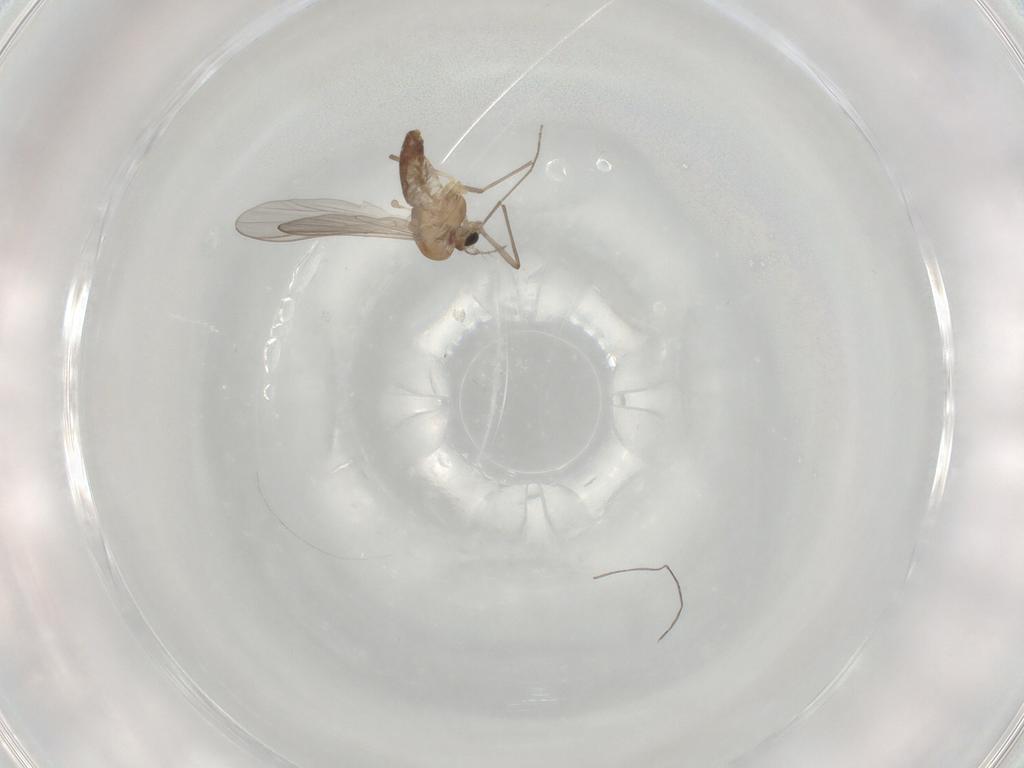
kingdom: Animalia
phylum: Arthropoda
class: Insecta
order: Diptera
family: Chironomidae
